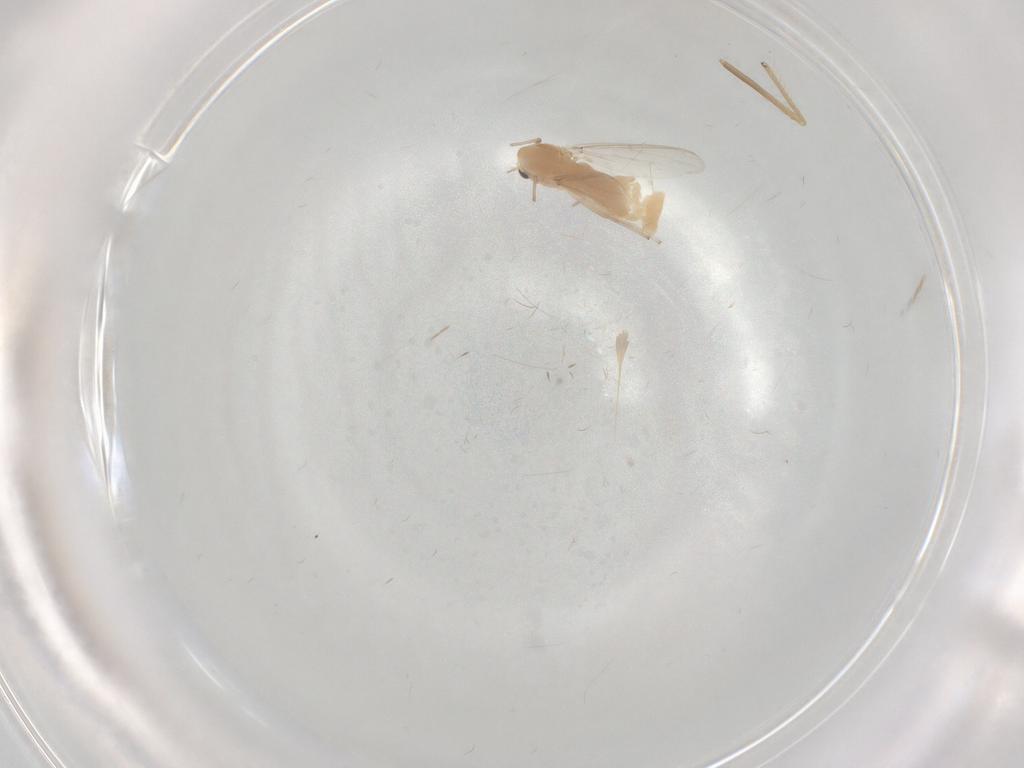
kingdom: Animalia
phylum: Arthropoda
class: Insecta
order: Diptera
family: Chironomidae
